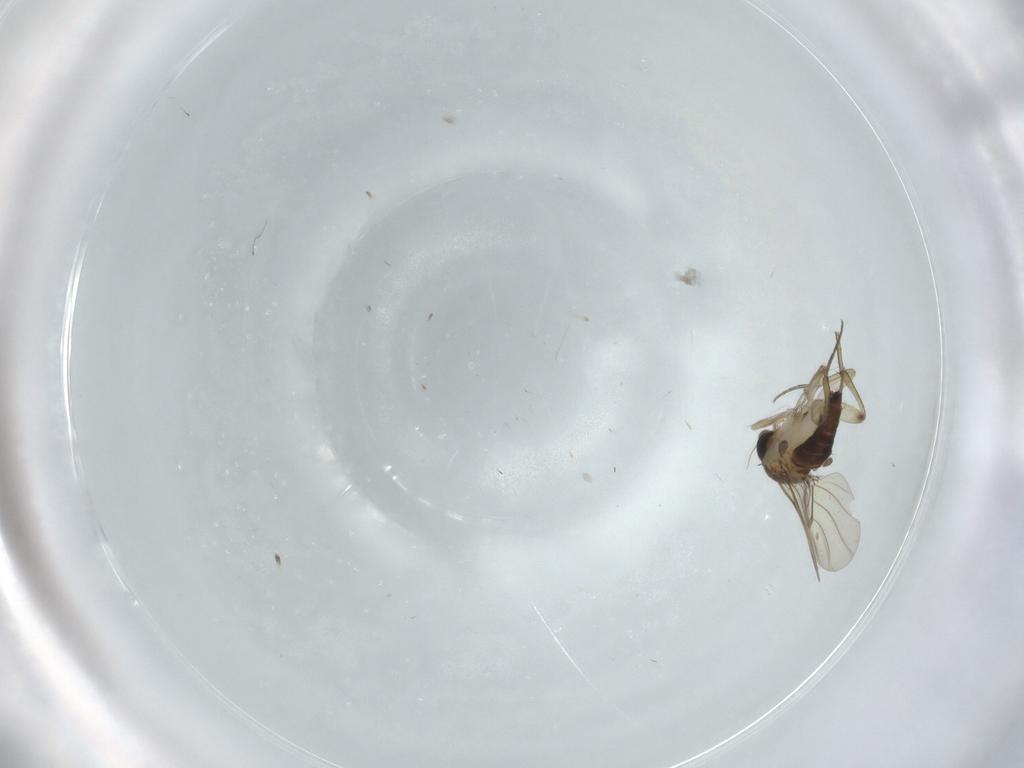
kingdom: Animalia
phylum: Arthropoda
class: Insecta
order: Diptera
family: Phoridae
